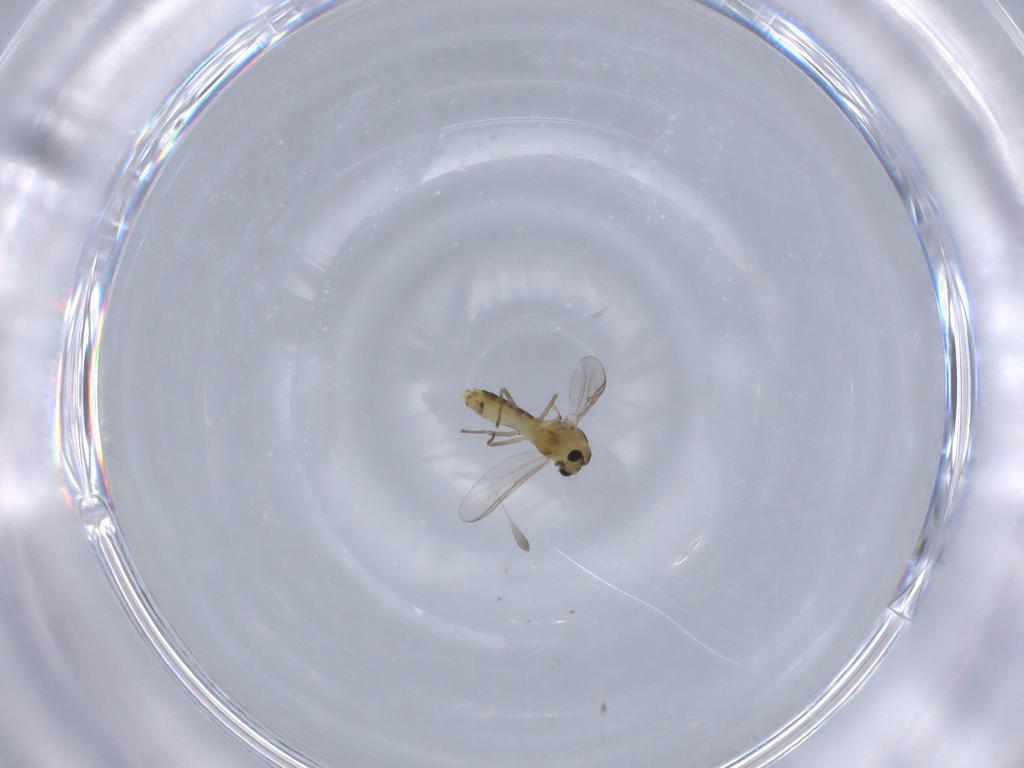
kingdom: Animalia
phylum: Arthropoda
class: Insecta
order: Diptera
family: Chironomidae
